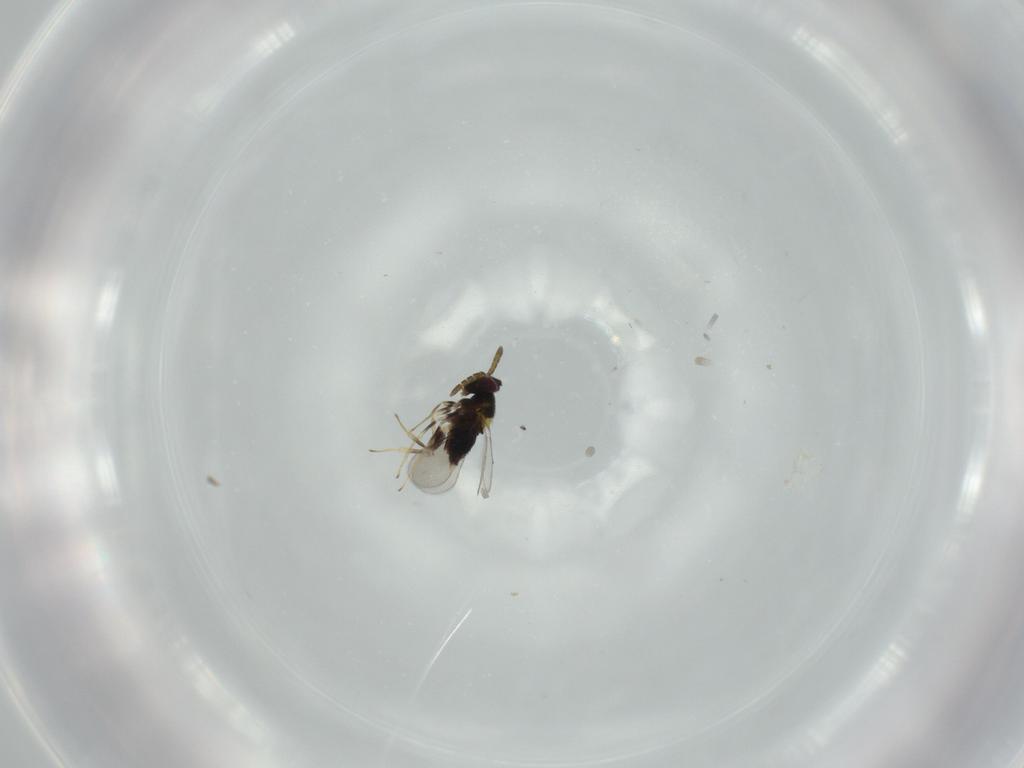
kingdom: Animalia
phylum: Arthropoda
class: Insecta
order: Hymenoptera
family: Aphelinidae
